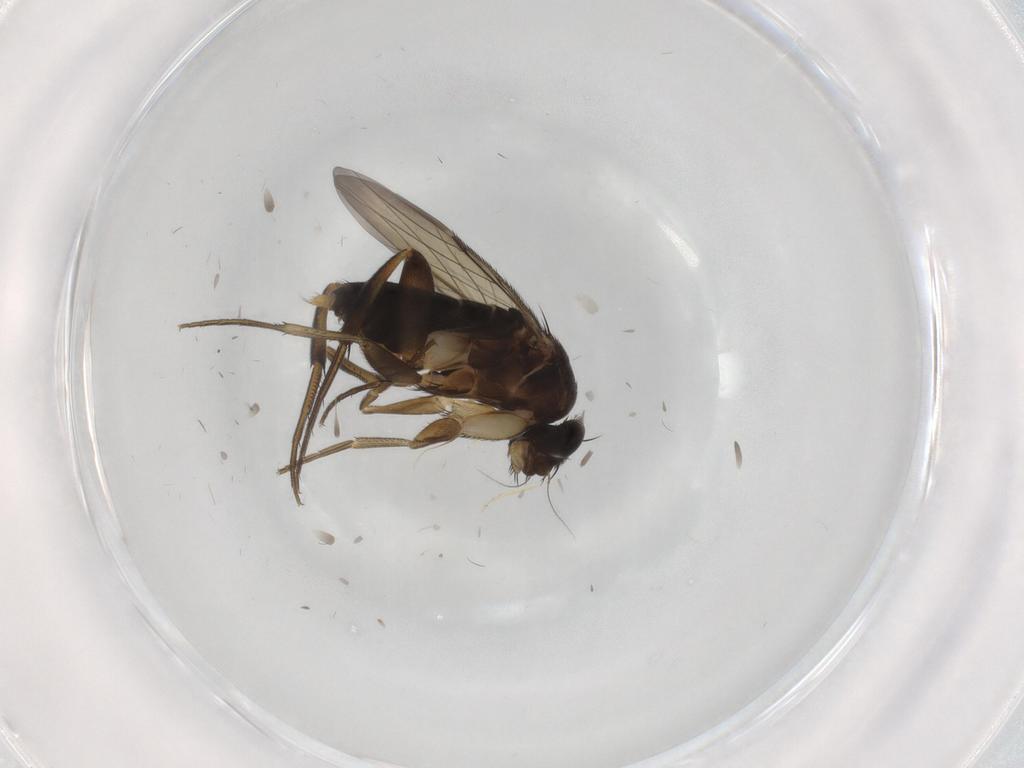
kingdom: Animalia
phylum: Arthropoda
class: Insecta
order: Diptera
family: Phoridae
